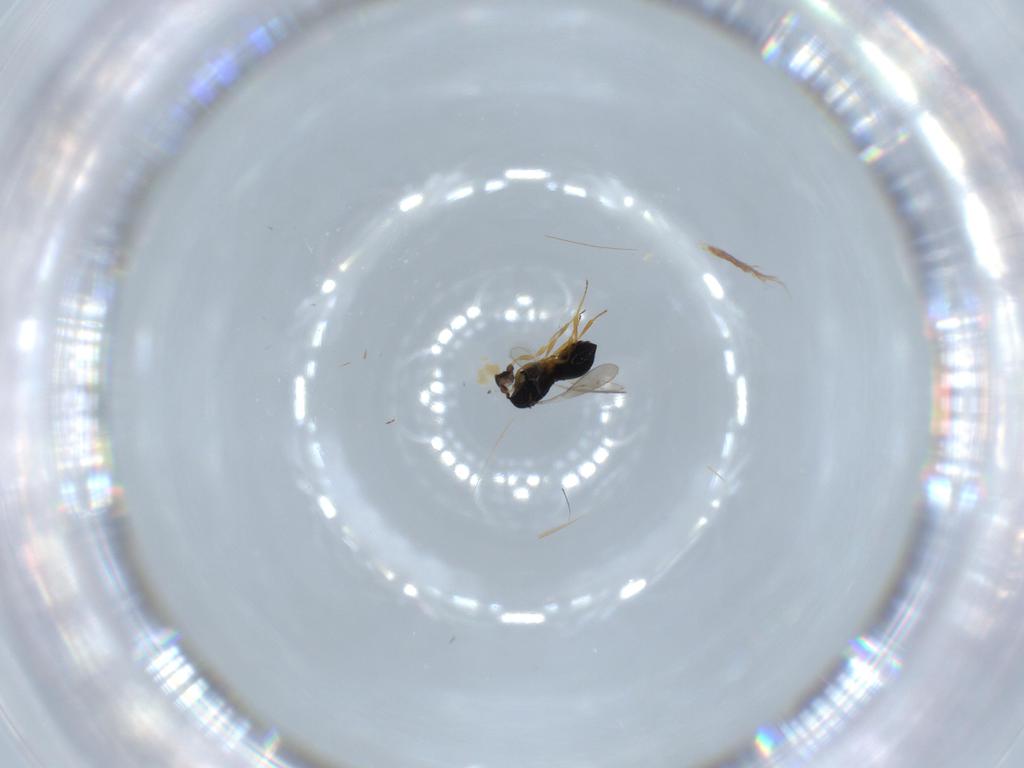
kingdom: Animalia
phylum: Arthropoda
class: Insecta
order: Hymenoptera
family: Scelionidae
